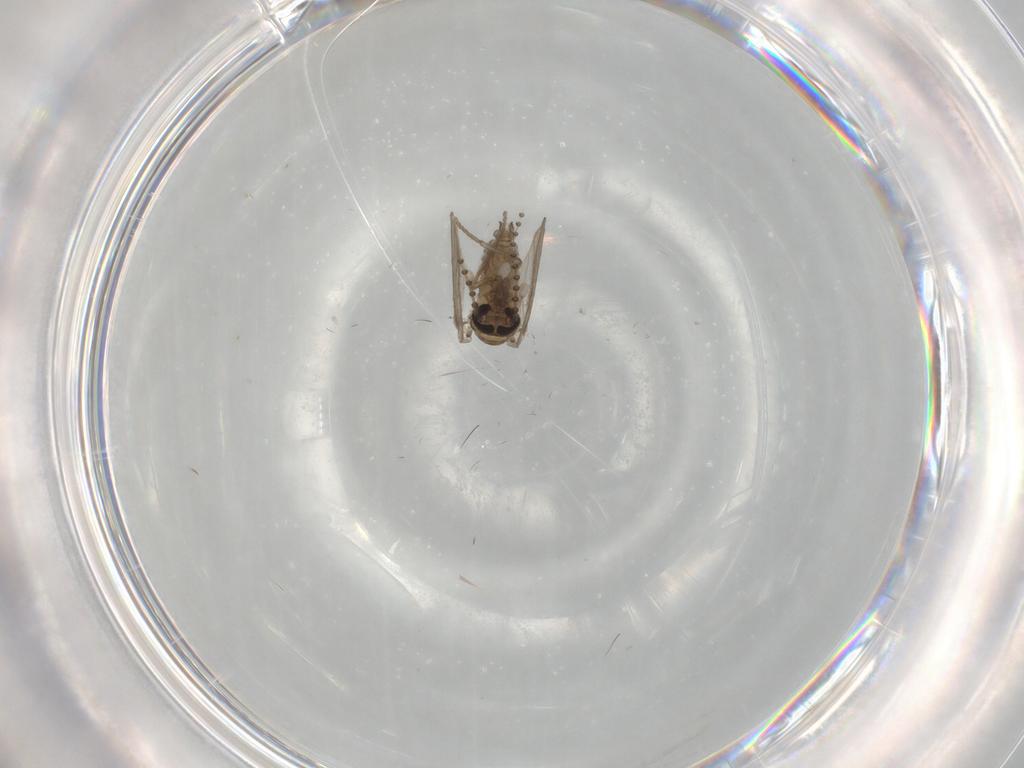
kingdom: Animalia
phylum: Arthropoda
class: Insecta
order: Diptera
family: Psychodidae
